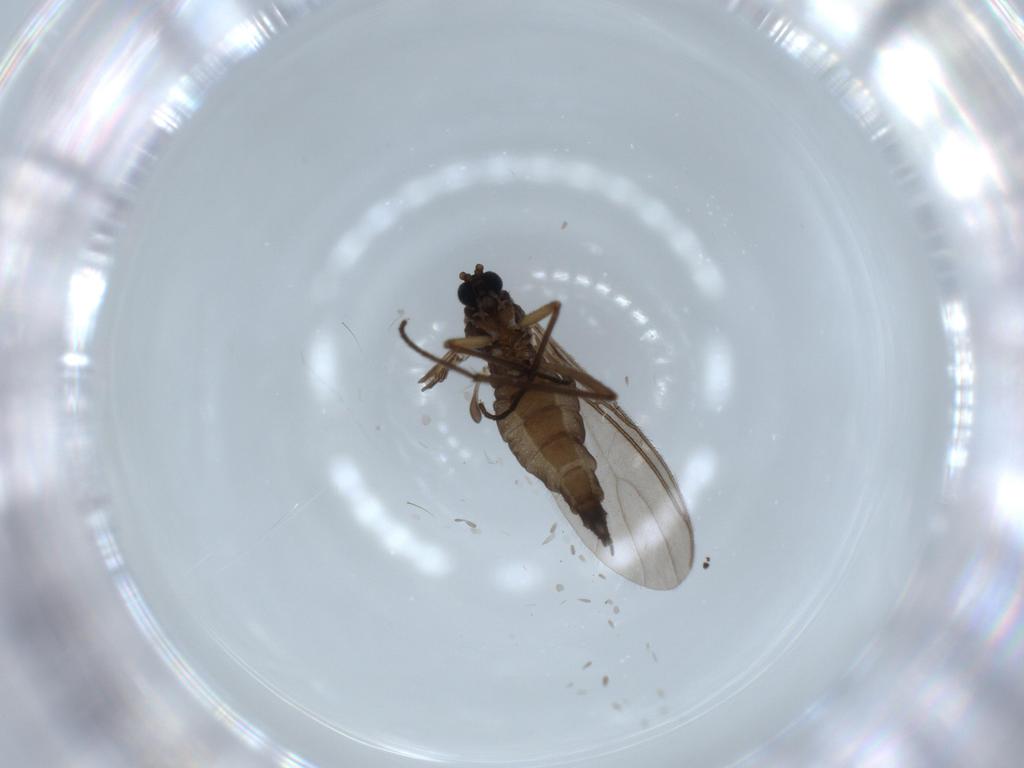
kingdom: Animalia
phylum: Arthropoda
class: Insecta
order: Diptera
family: Sciaridae
